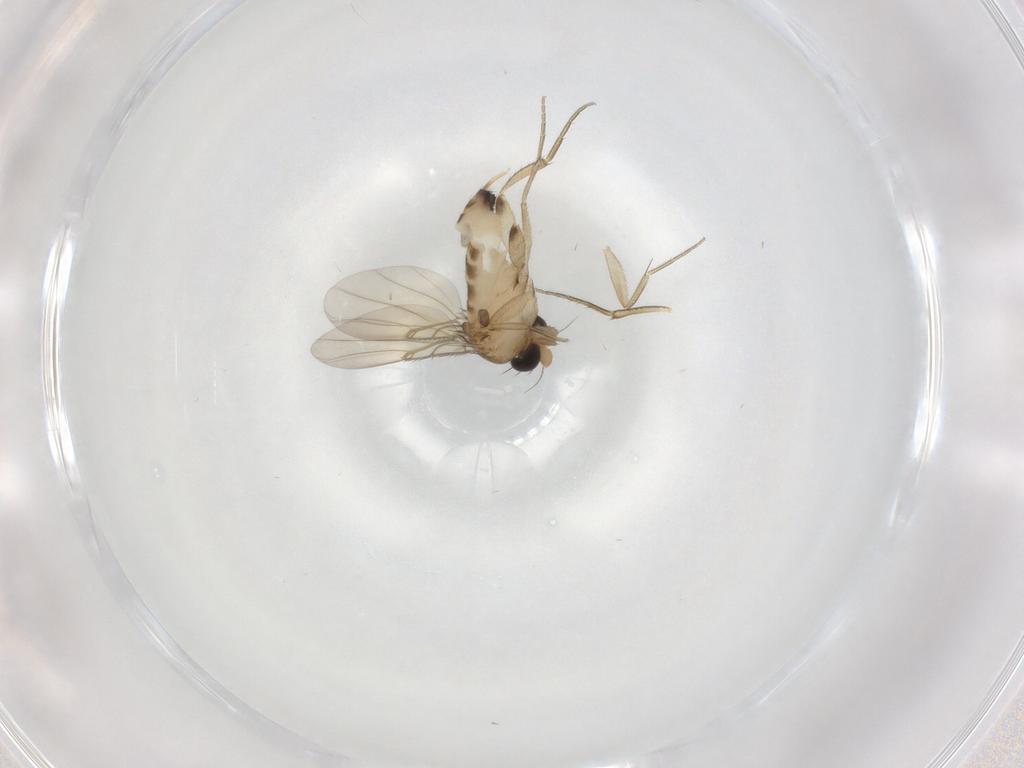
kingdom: Animalia
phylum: Arthropoda
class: Insecta
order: Diptera
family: Phoridae
